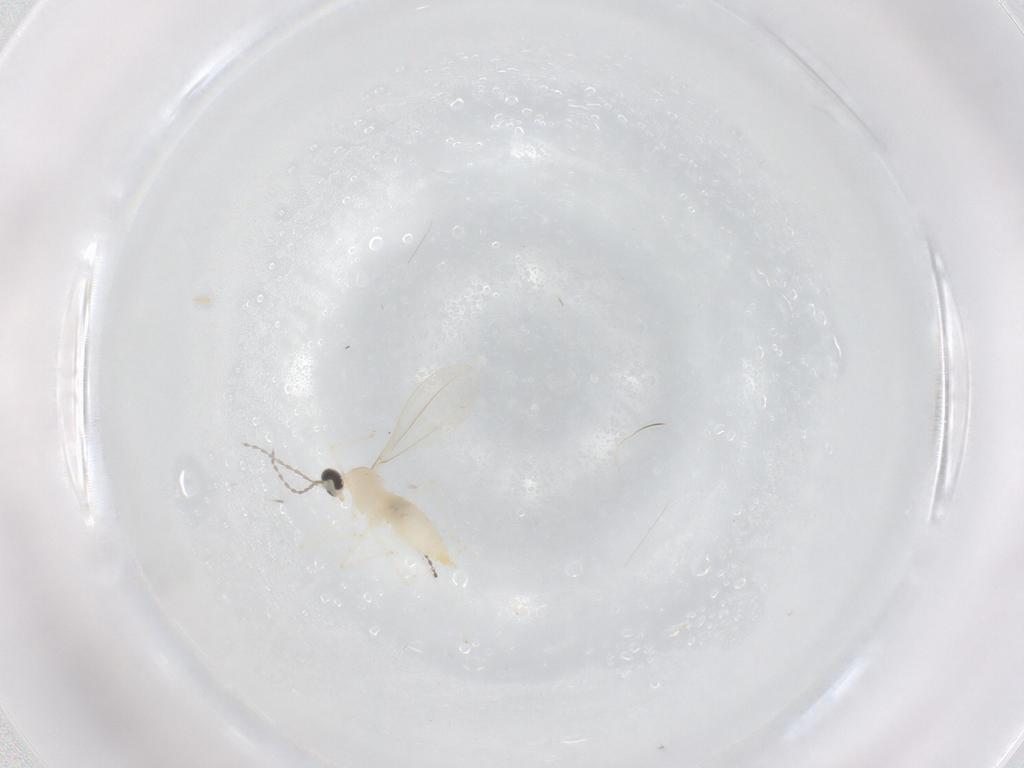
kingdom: Animalia
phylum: Arthropoda
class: Insecta
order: Diptera
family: Cecidomyiidae
